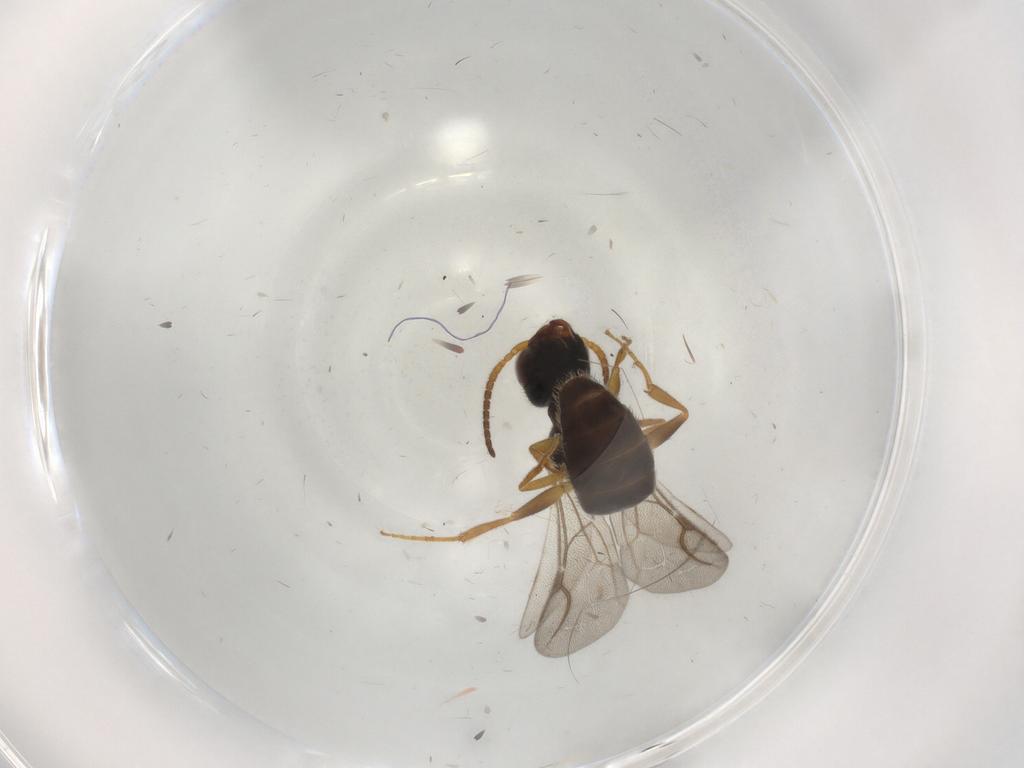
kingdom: Animalia
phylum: Arthropoda
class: Insecta
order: Hymenoptera
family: Bethylidae
